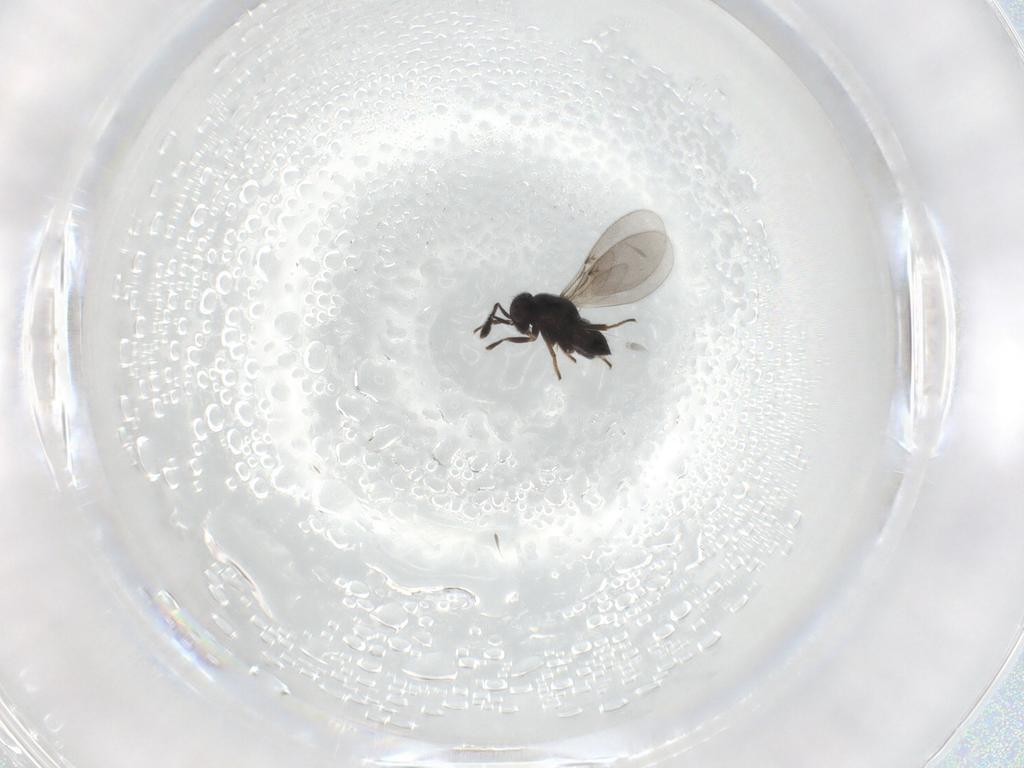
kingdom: Animalia
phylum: Arthropoda
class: Insecta
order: Hymenoptera
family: Encyrtidae
